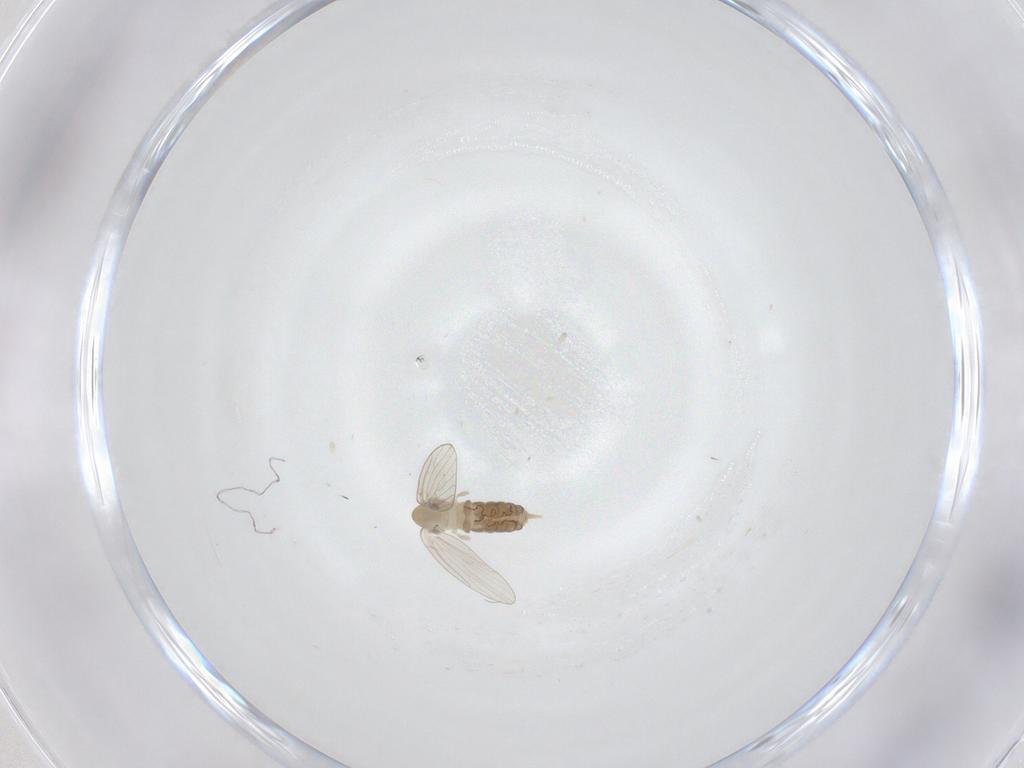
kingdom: Animalia
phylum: Arthropoda
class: Insecta
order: Diptera
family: Psychodidae
